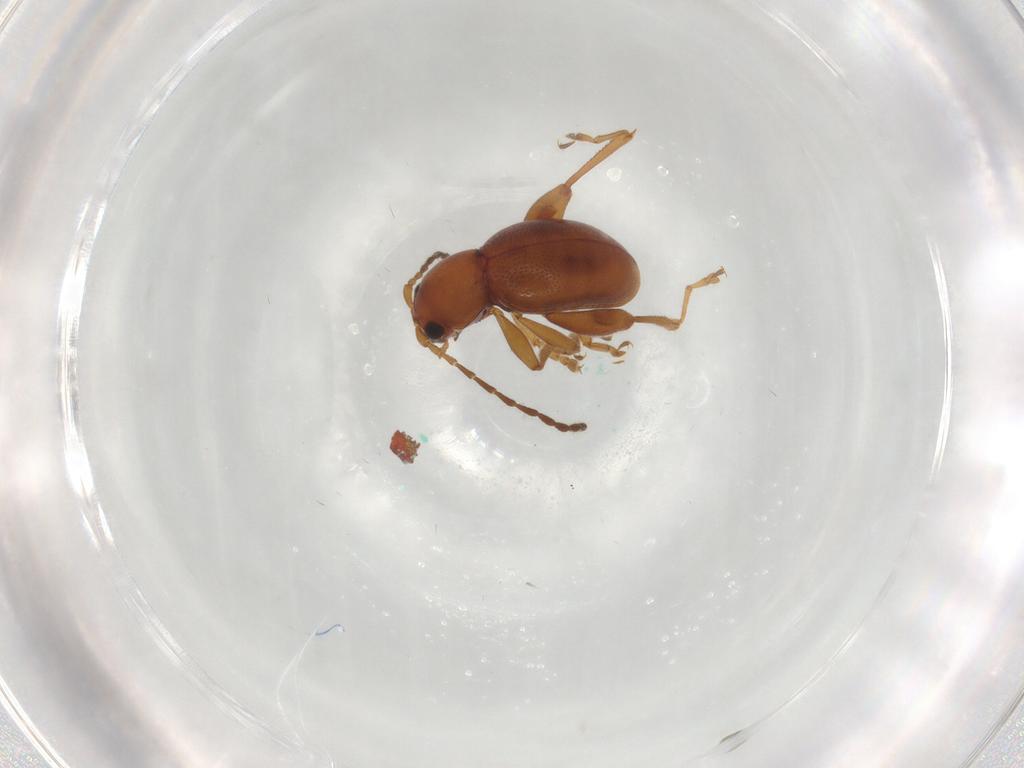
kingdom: Animalia
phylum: Arthropoda
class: Insecta
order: Coleoptera
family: Chrysomelidae
